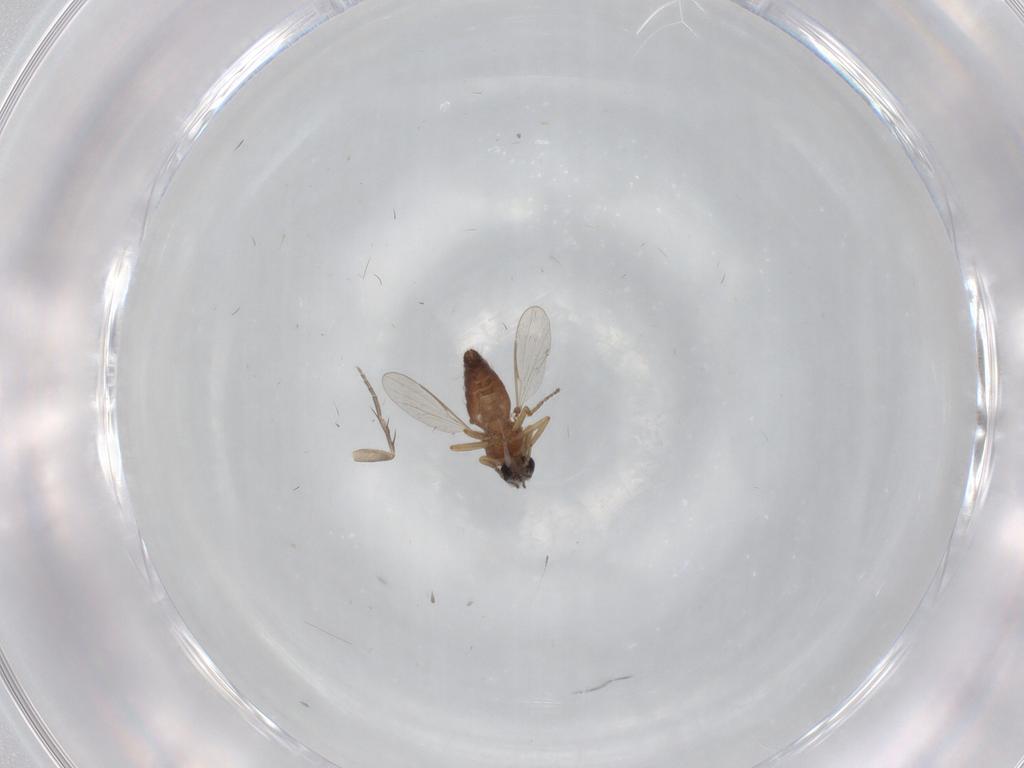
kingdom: Animalia
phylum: Arthropoda
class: Insecta
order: Diptera
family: Ceratopogonidae
